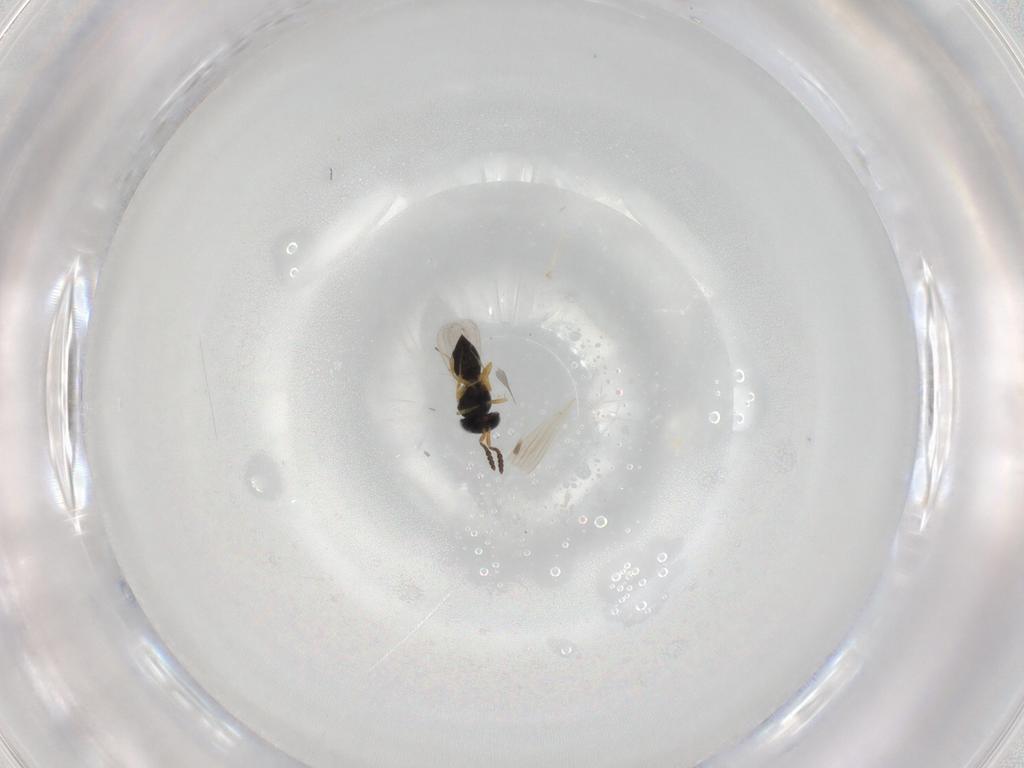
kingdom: Animalia
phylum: Arthropoda
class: Insecta
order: Hymenoptera
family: Scelionidae
